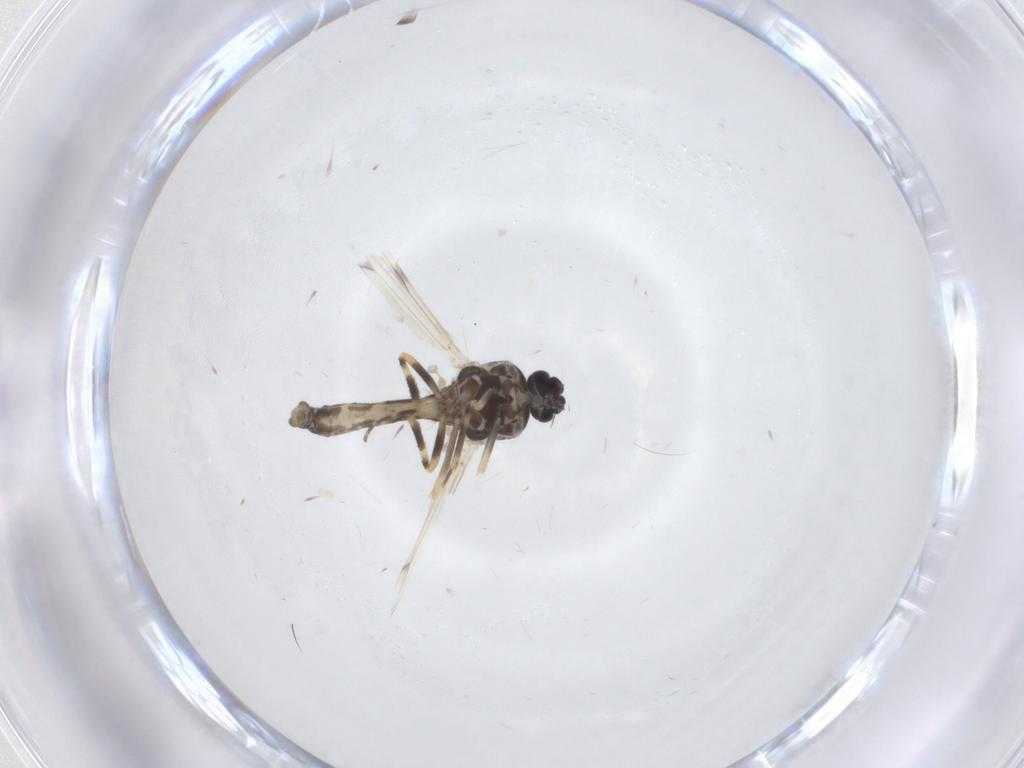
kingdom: Animalia
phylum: Arthropoda
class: Insecta
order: Diptera
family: Ceratopogonidae
